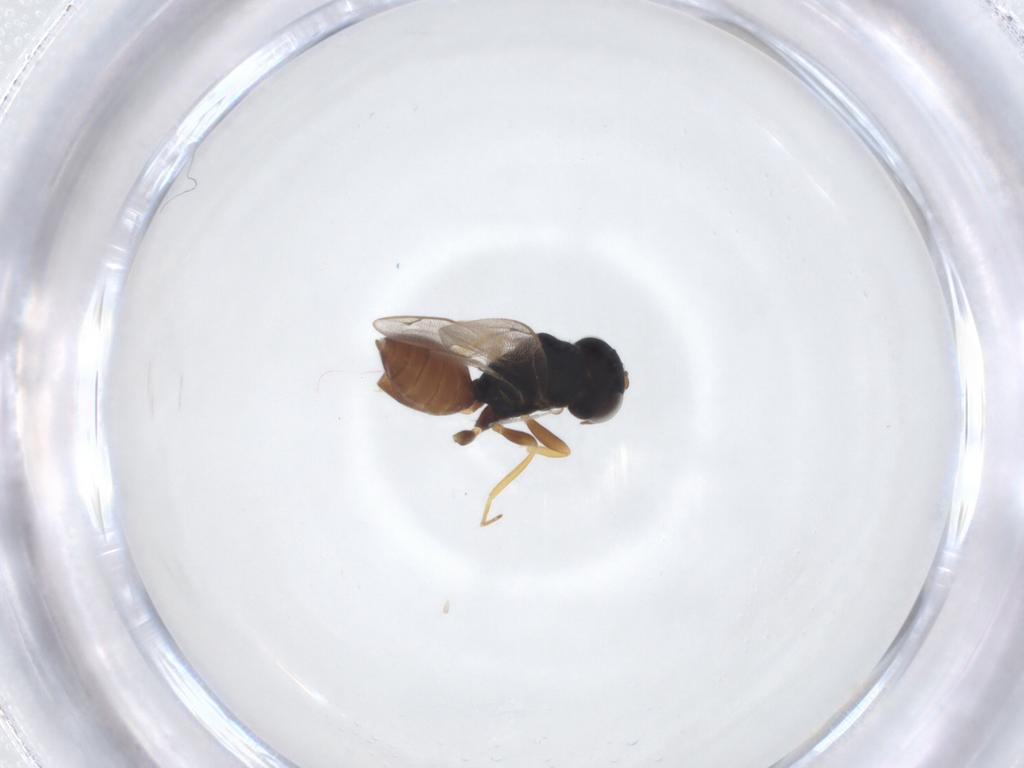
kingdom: Animalia
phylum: Arthropoda
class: Insecta
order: Hymenoptera
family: Pteromalidae
